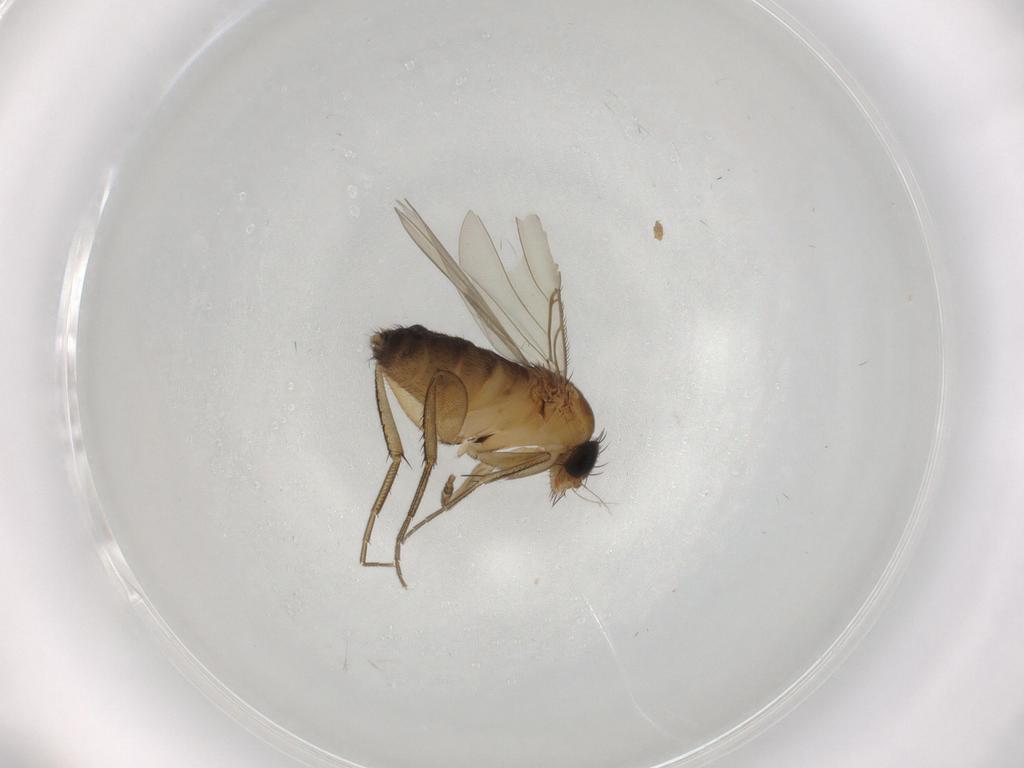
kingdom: Animalia
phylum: Arthropoda
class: Insecta
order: Diptera
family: Phoridae
